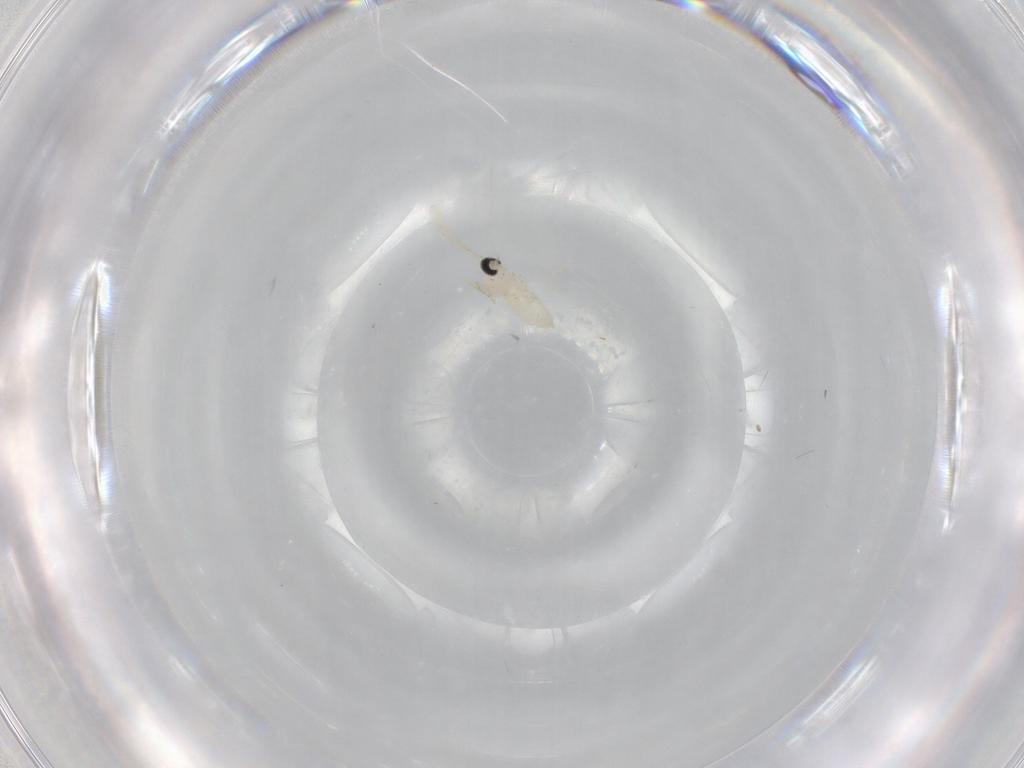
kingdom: Animalia
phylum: Arthropoda
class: Insecta
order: Diptera
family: Cecidomyiidae
